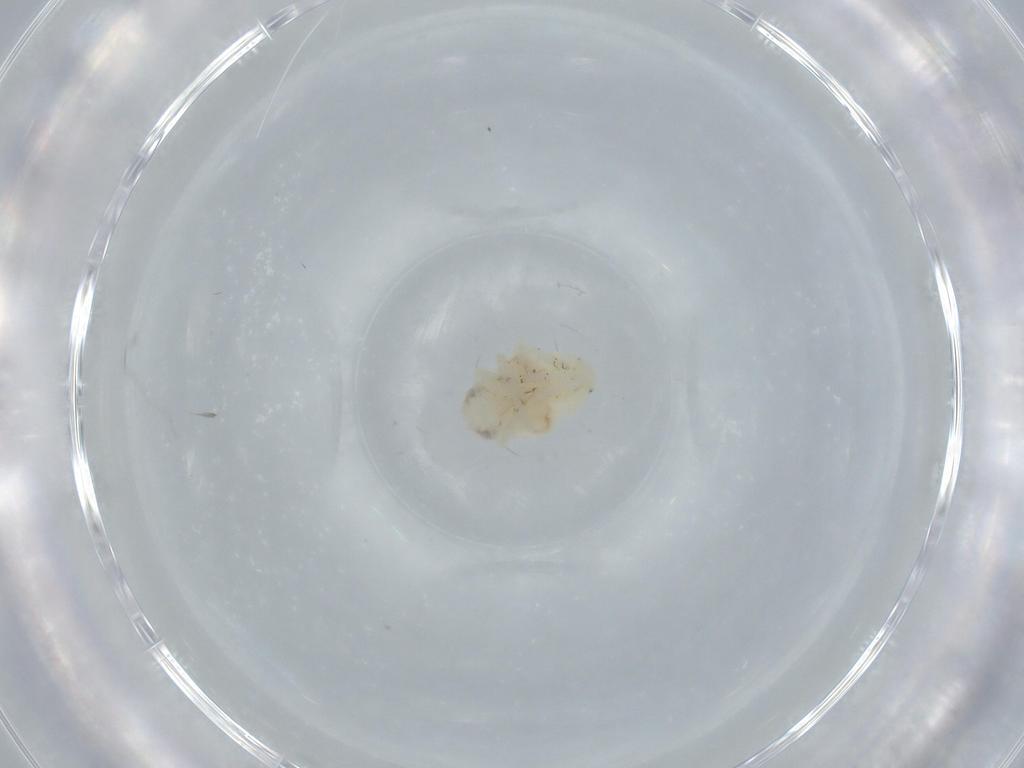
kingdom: Animalia
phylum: Arthropoda
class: Insecta
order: Hemiptera
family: Nogodinidae
